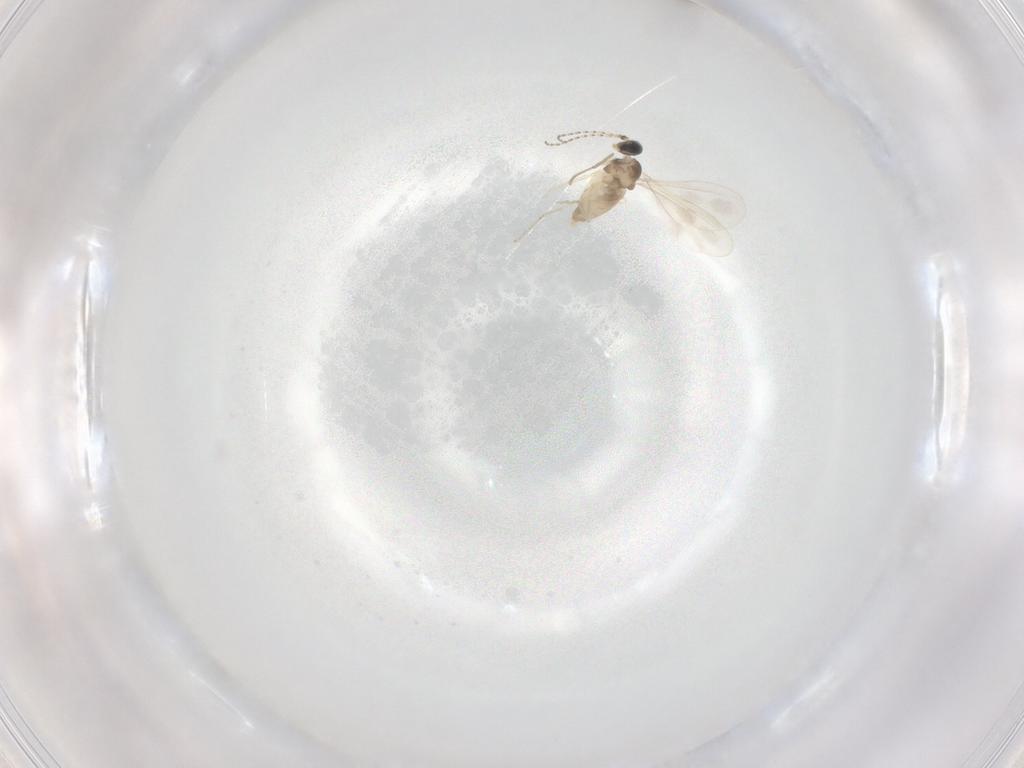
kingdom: Animalia
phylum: Arthropoda
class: Insecta
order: Diptera
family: Cecidomyiidae
